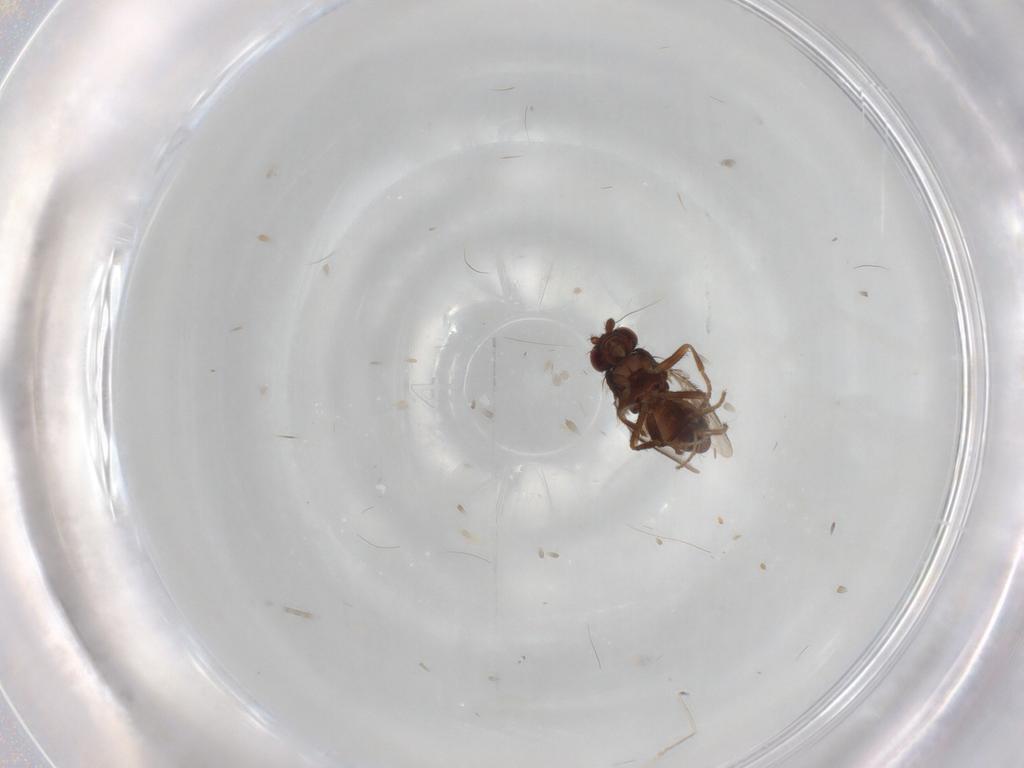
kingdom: Animalia
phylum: Arthropoda
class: Insecta
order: Diptera
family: Sphaeroceridae
